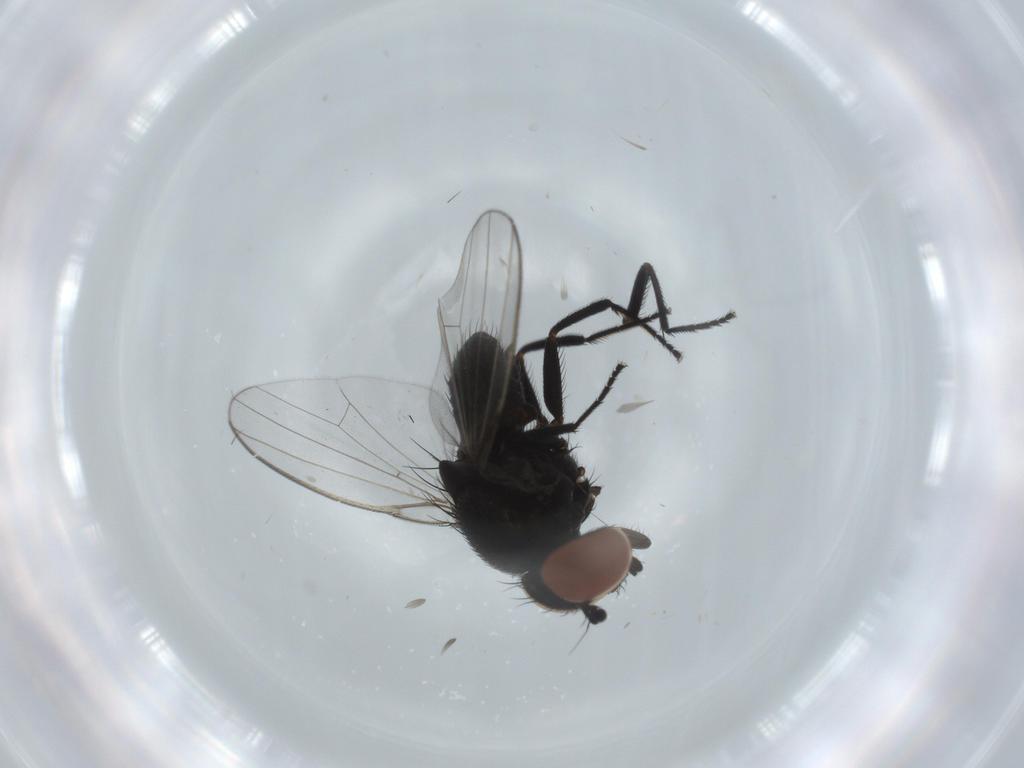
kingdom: Animalia
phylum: Arthropoda
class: Insecta
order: Diptera
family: Milichiidae
